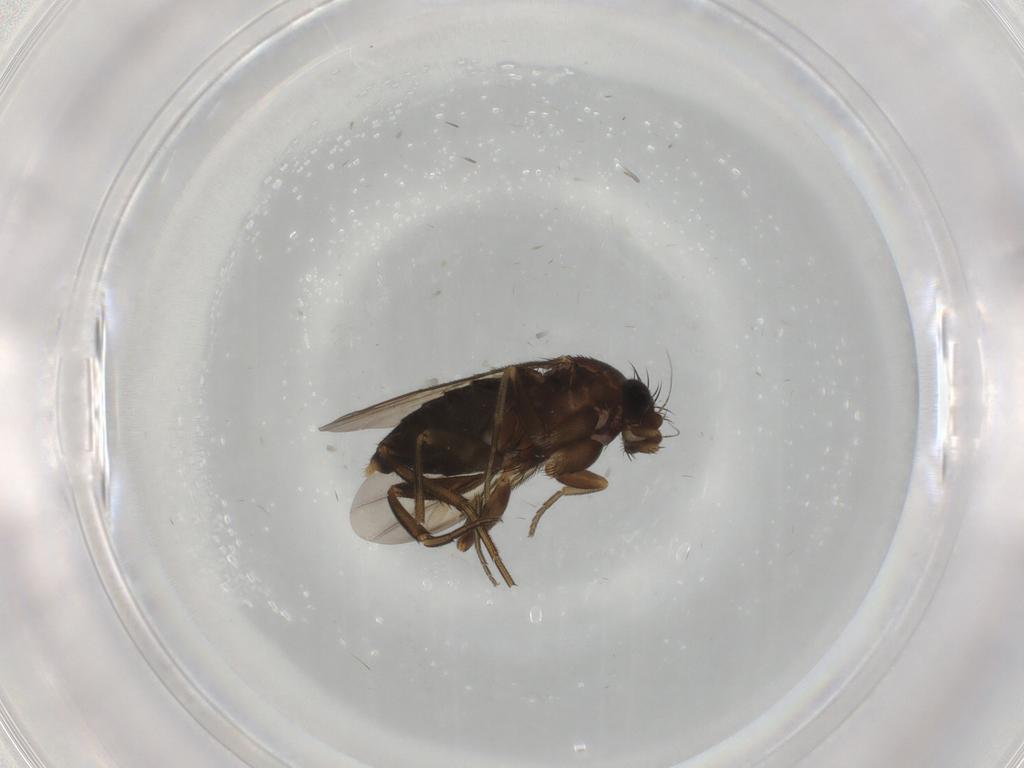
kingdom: Animalia
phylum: Arthropoda
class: Insecta
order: Diptera
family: Phoridae
